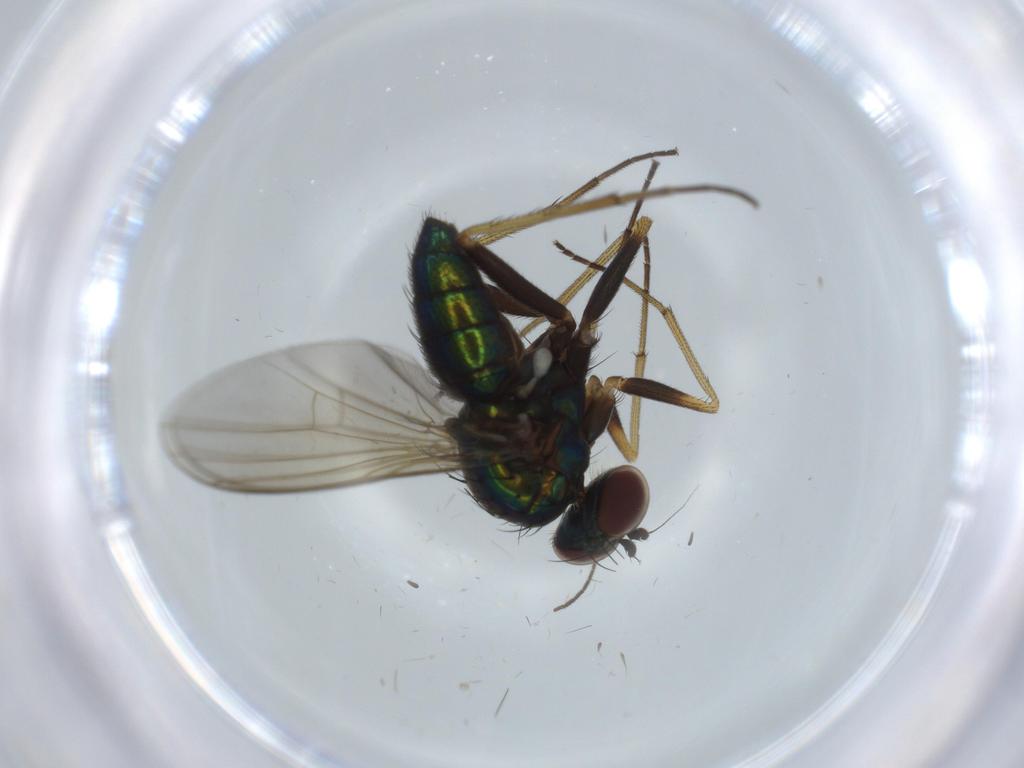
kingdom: Animalia
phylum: Arthropoda
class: Insecta
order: Diptera
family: Dolichopodidae
